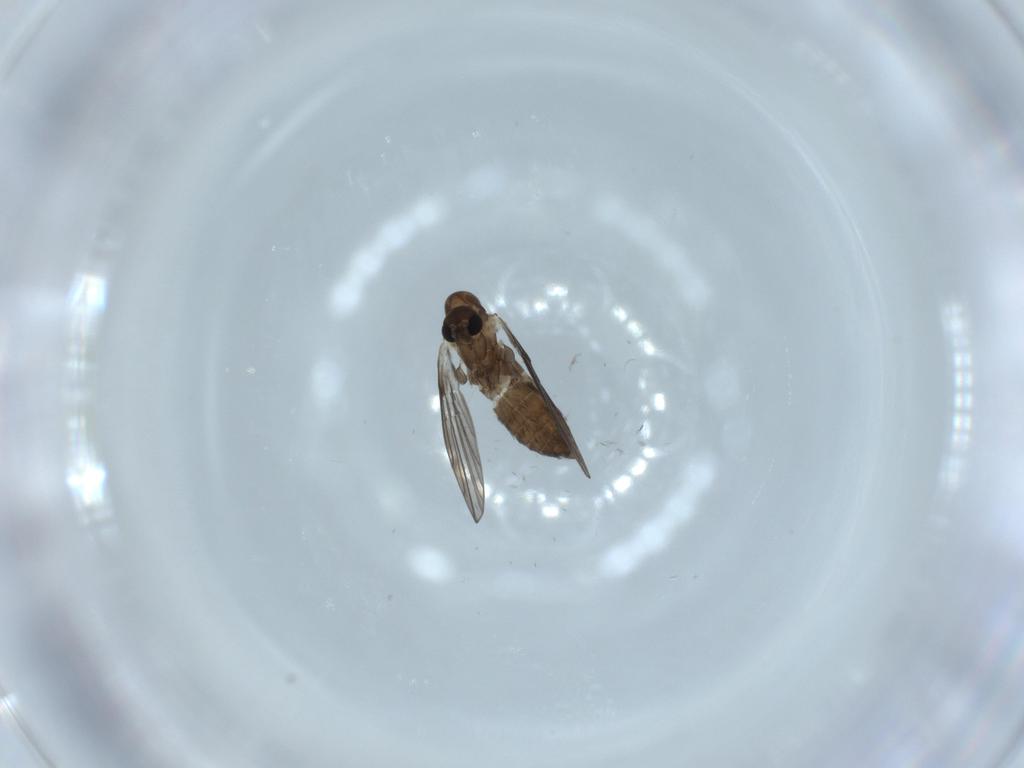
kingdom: Animalia
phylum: Arthropoda
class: Insecta
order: Diptera
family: Psychodidae
